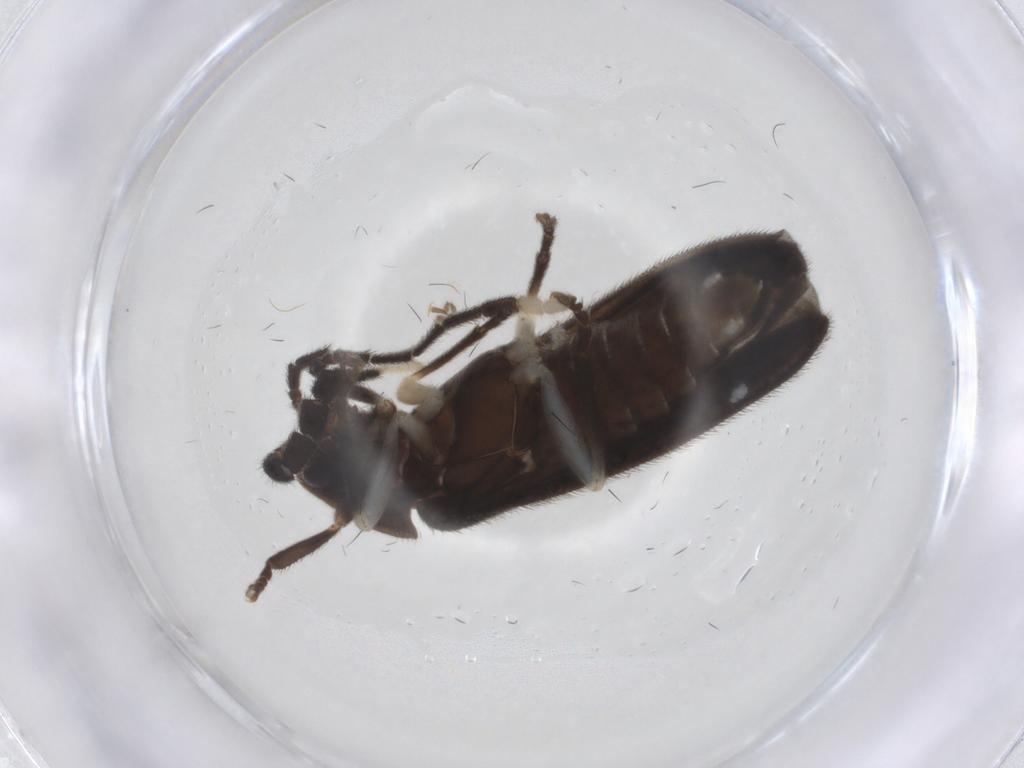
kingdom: Animalia
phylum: Arthropoda
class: Insecta
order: Coleoptera
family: Lampyridae
